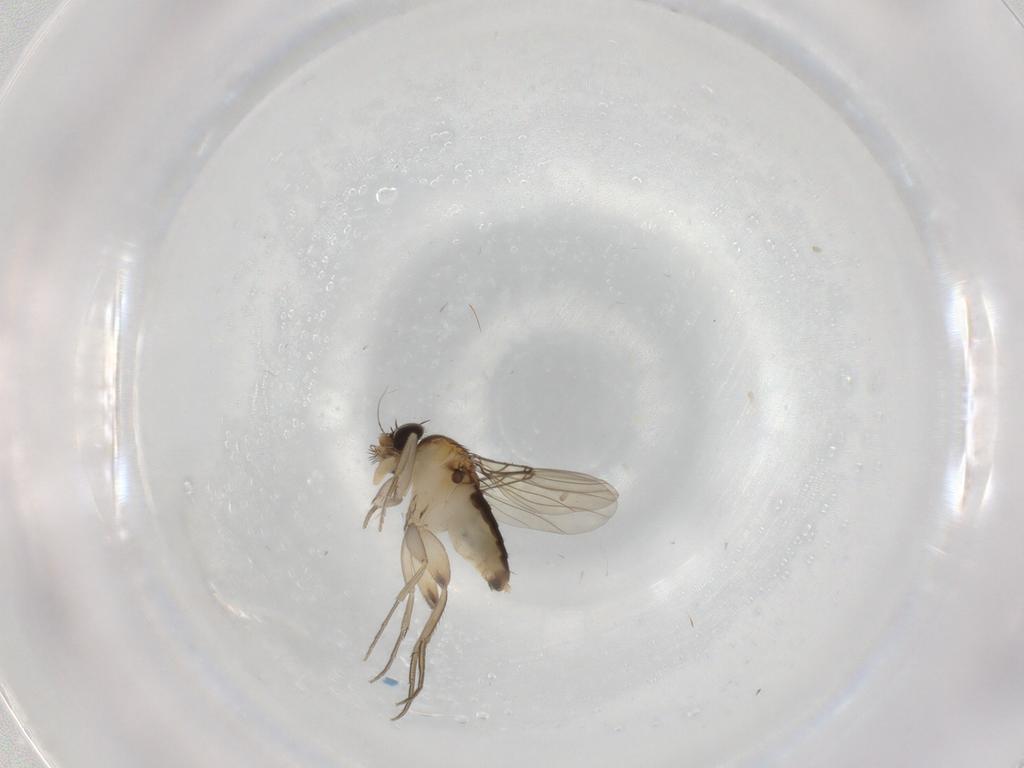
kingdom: Animalia
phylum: Arthropoda
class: Insecta
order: Diptera
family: Phoridae
